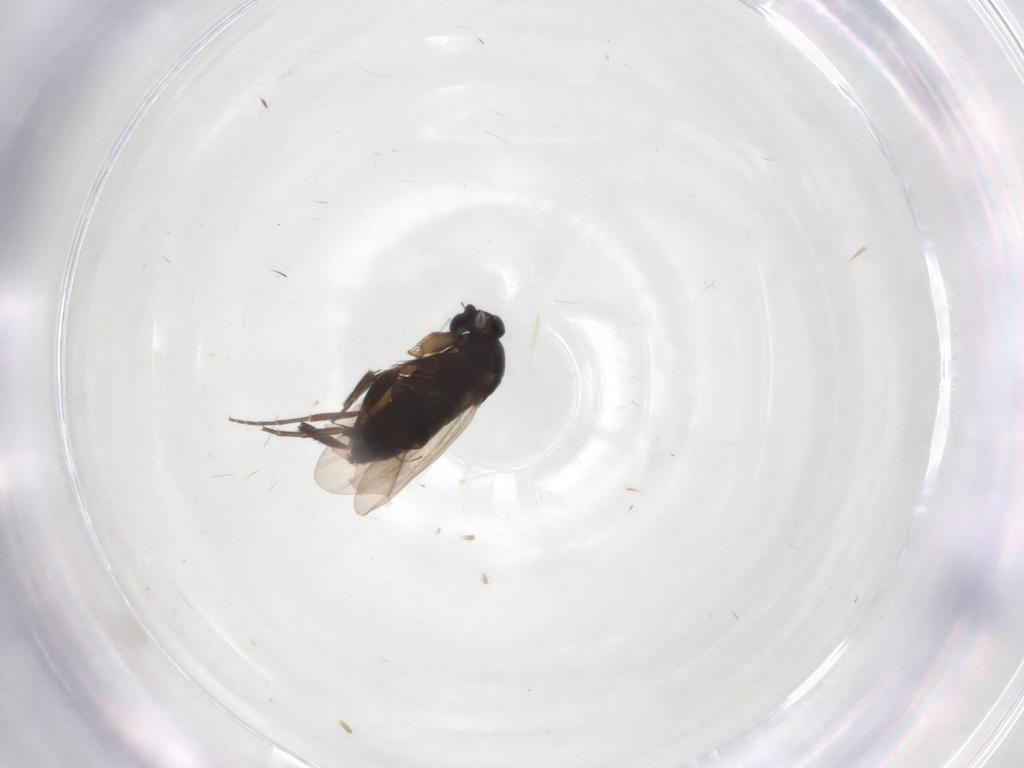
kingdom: Animalia
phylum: Arthropoda
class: Insecta
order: Diptera
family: Phoridae
